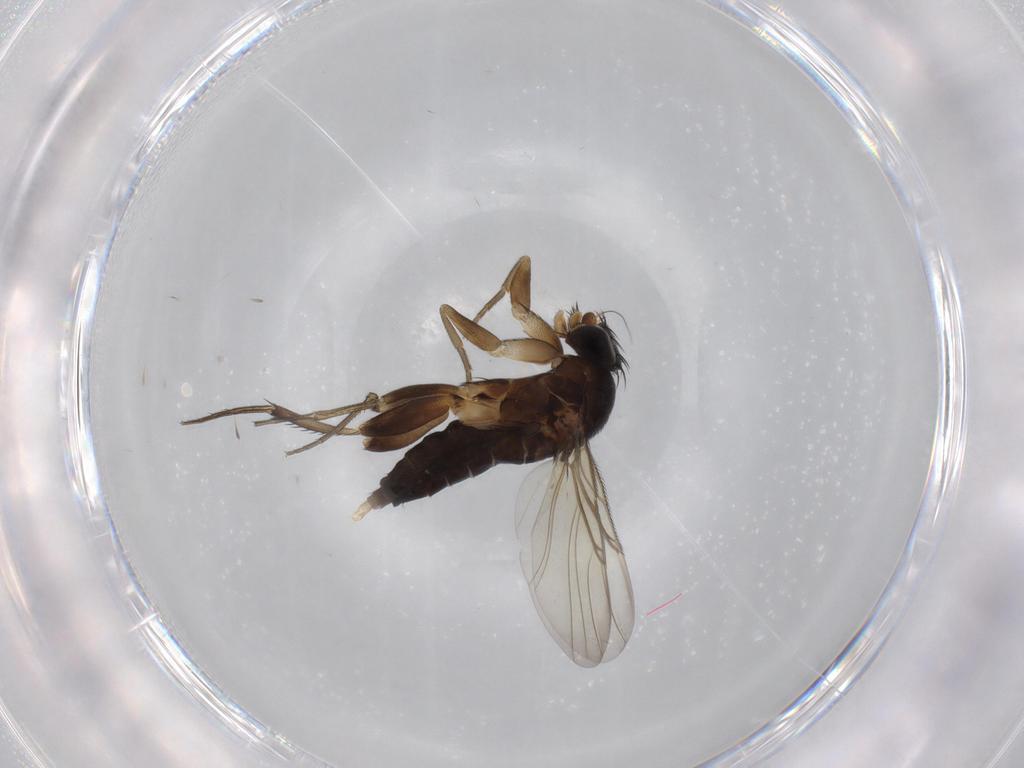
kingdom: Animalia
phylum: Arthropoda
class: Insecta
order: Diptera
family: Phoridae
